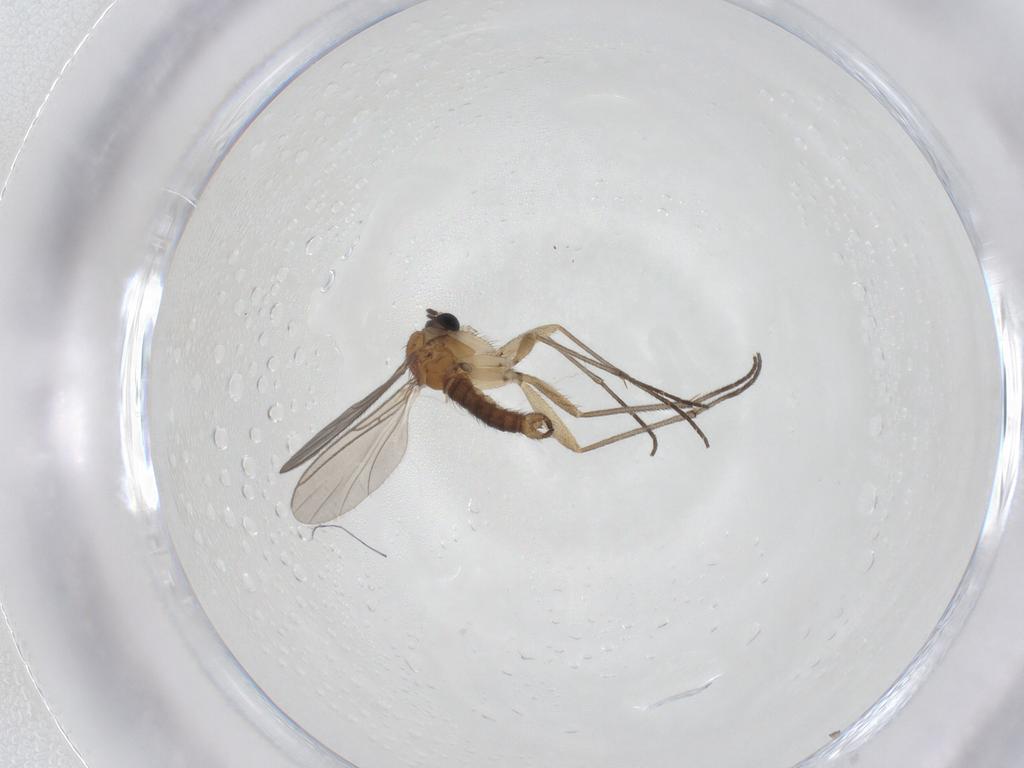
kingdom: Animalia
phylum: Arthropoda
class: Insecta
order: Diptera
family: Sciaridae
